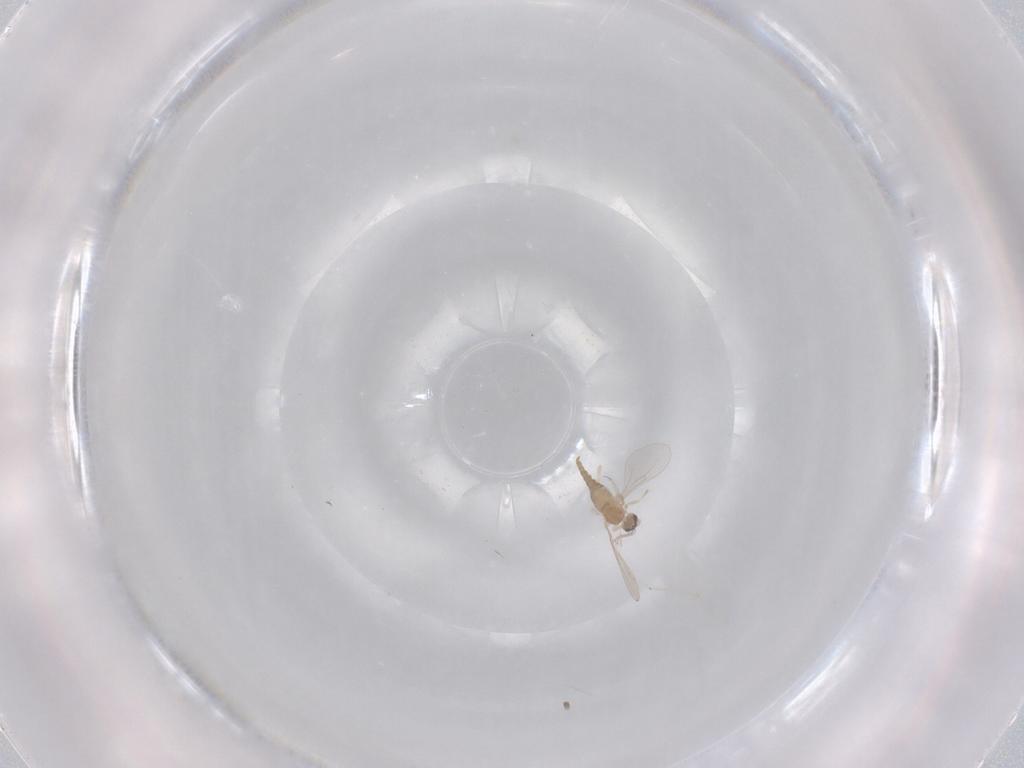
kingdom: Animalia
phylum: Arthropoda
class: Insecta
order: Diptera
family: Cecidomyiidae
